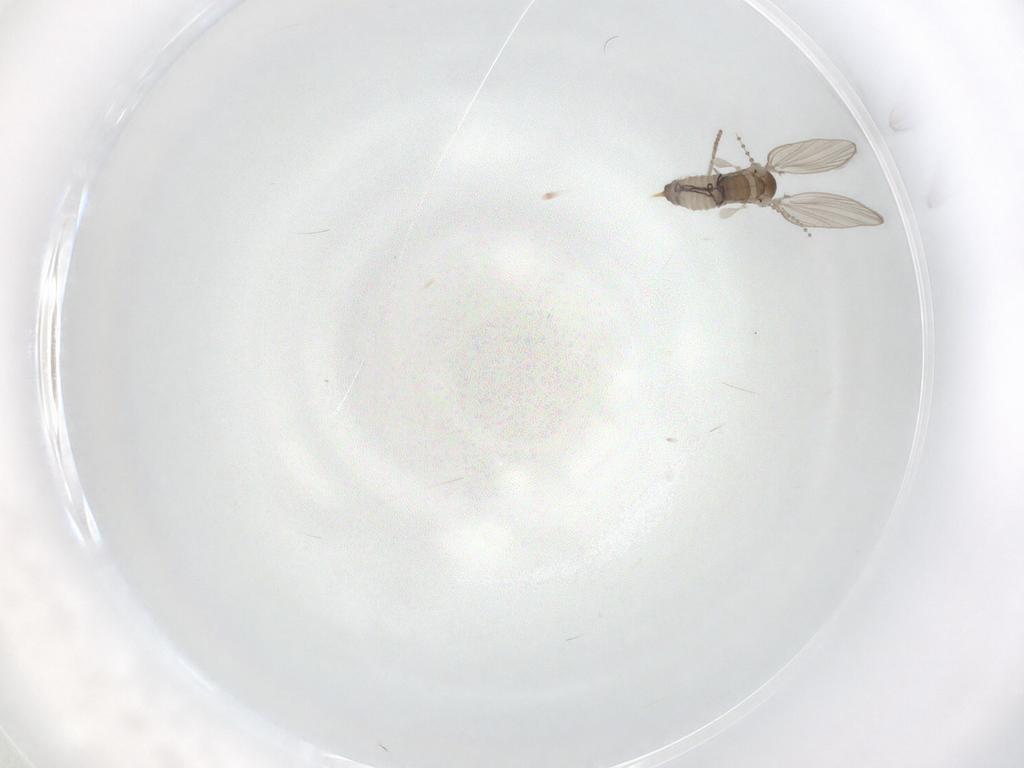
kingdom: Animalia
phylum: Arthropoda
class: Insecta
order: Diptera
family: Psychodidae
